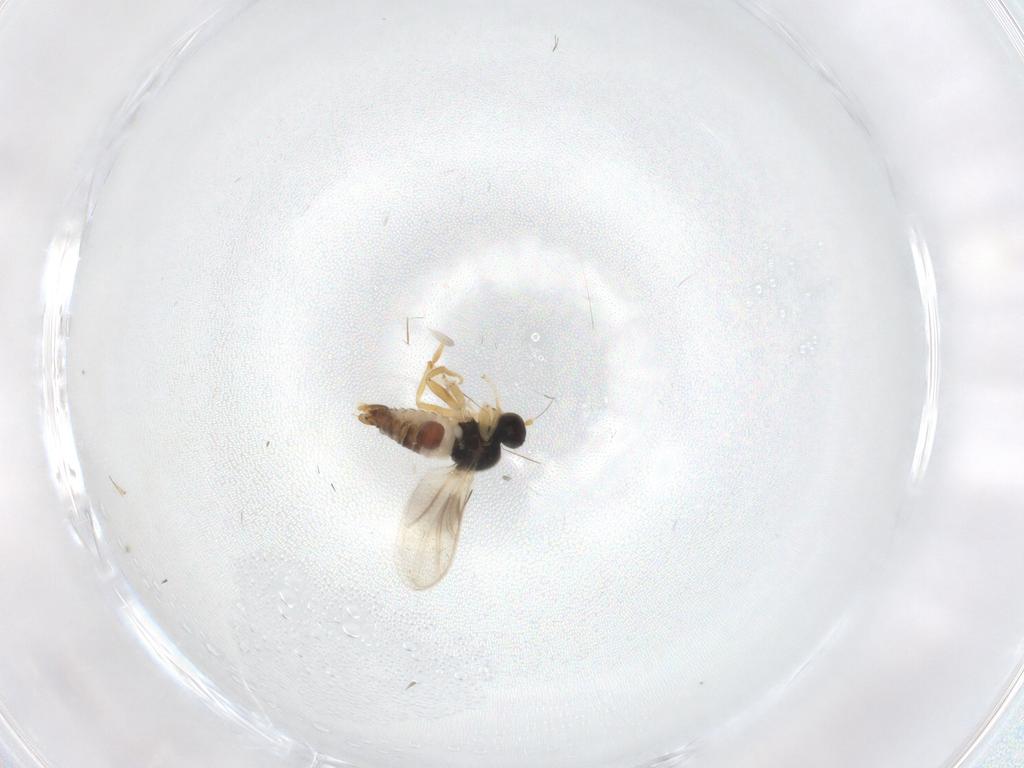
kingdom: Animalia
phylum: Arthropoda
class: Insecta
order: Diptera
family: Hybotidae
